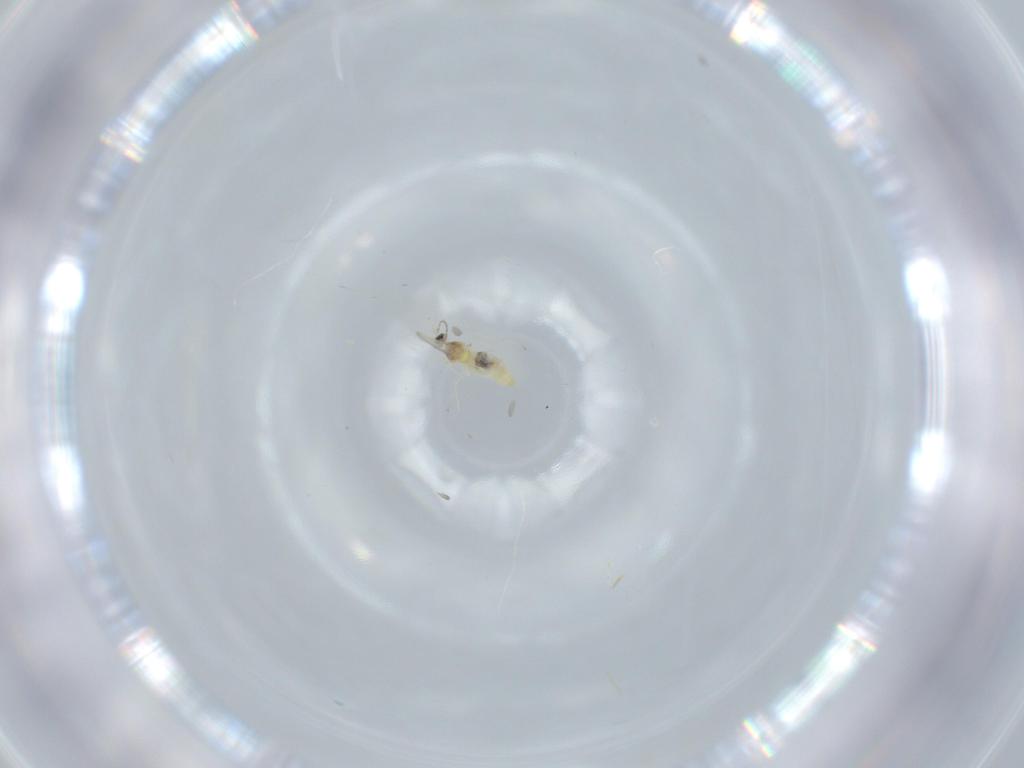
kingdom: Animalia
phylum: Arthropoda
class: Insecta
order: Diptera
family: Cecidomyiidae
